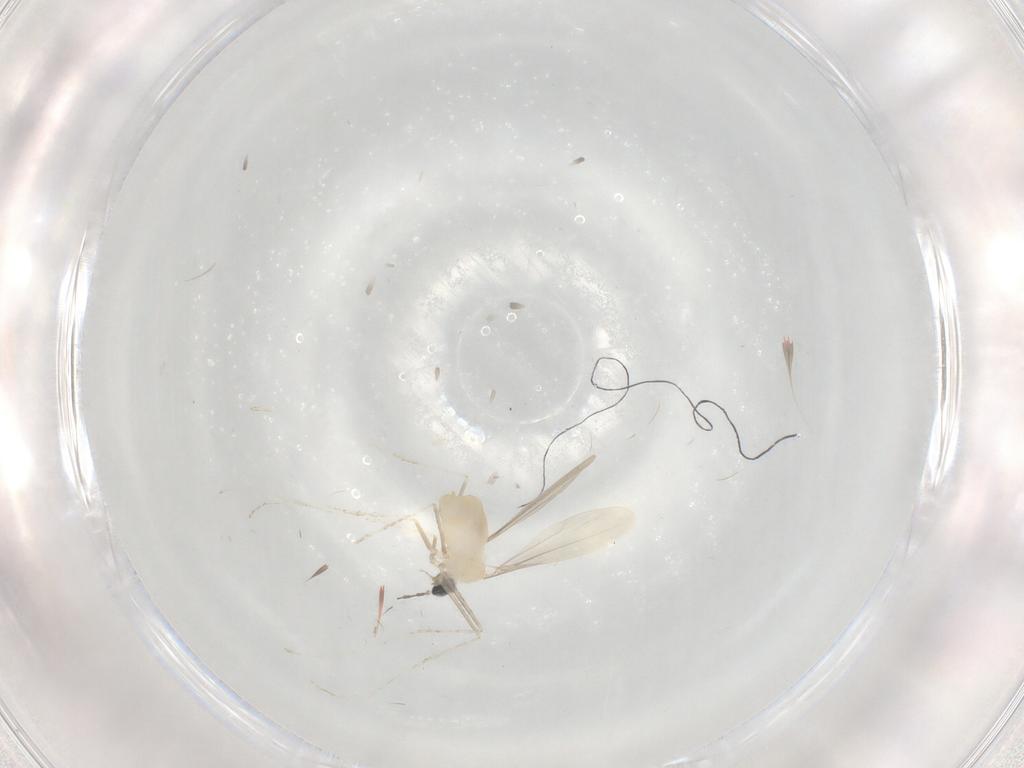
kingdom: Animalia
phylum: Arthropoda
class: Insecta
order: Diptera
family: Cecidomyiidae
